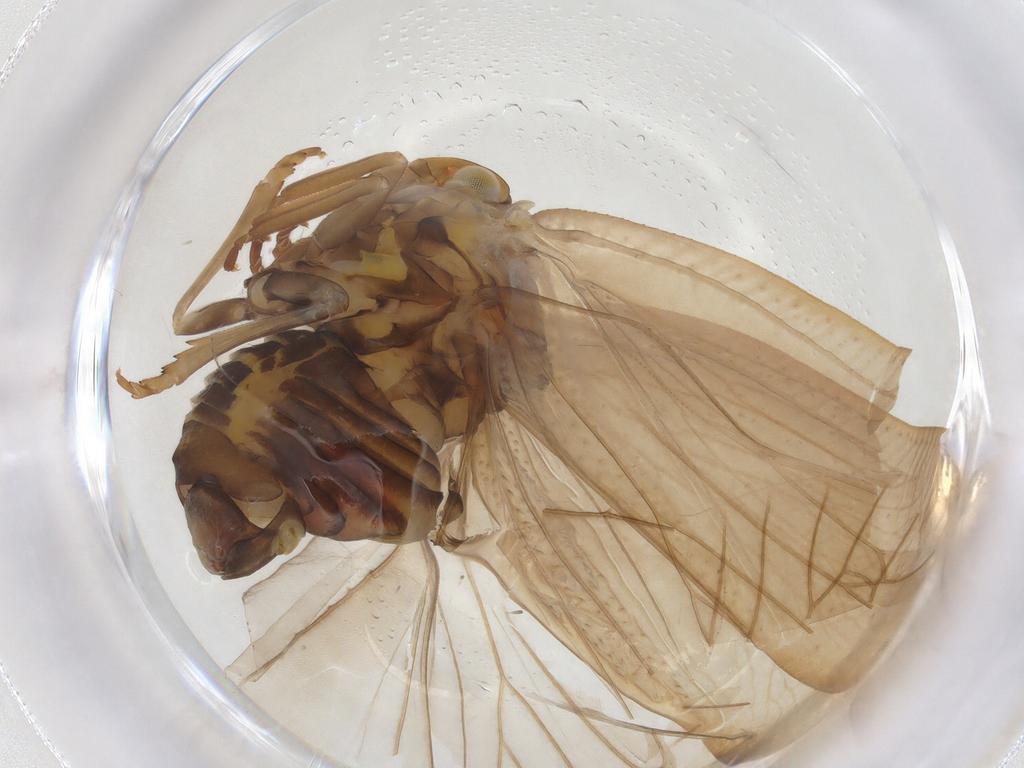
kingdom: Animalia
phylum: Arthropoda
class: Insecta
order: Hemiptera
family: Flatidae
